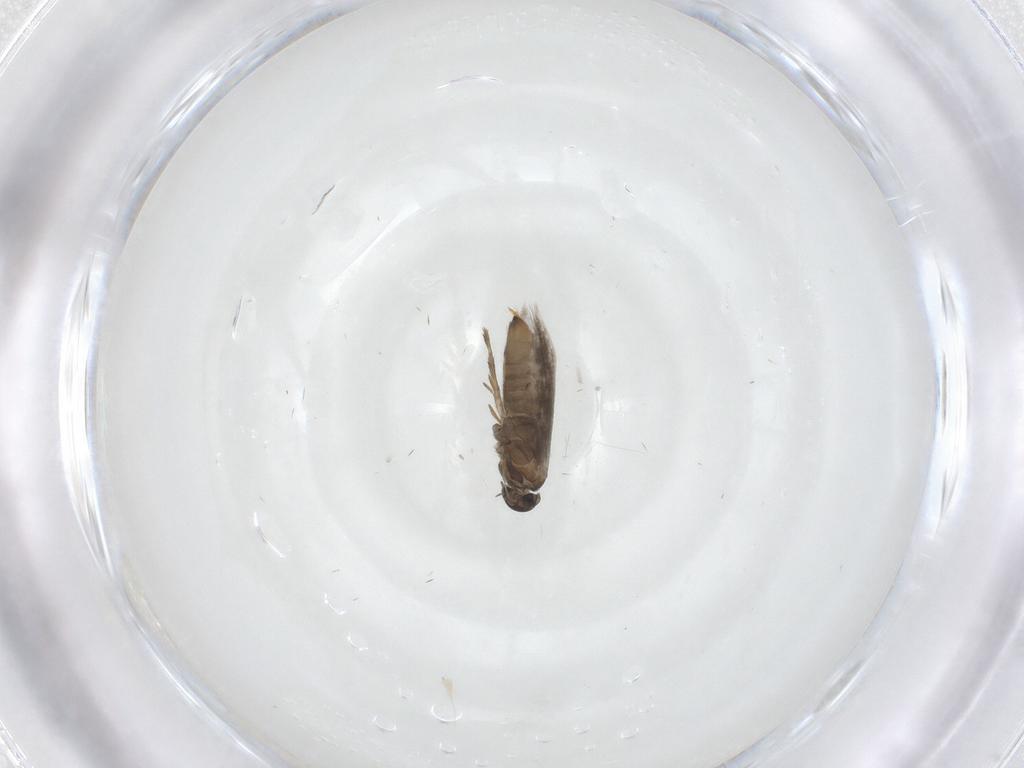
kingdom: Animalia
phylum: Arthropoda
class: Insecta
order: Lepidoptera
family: Heliozelidae
